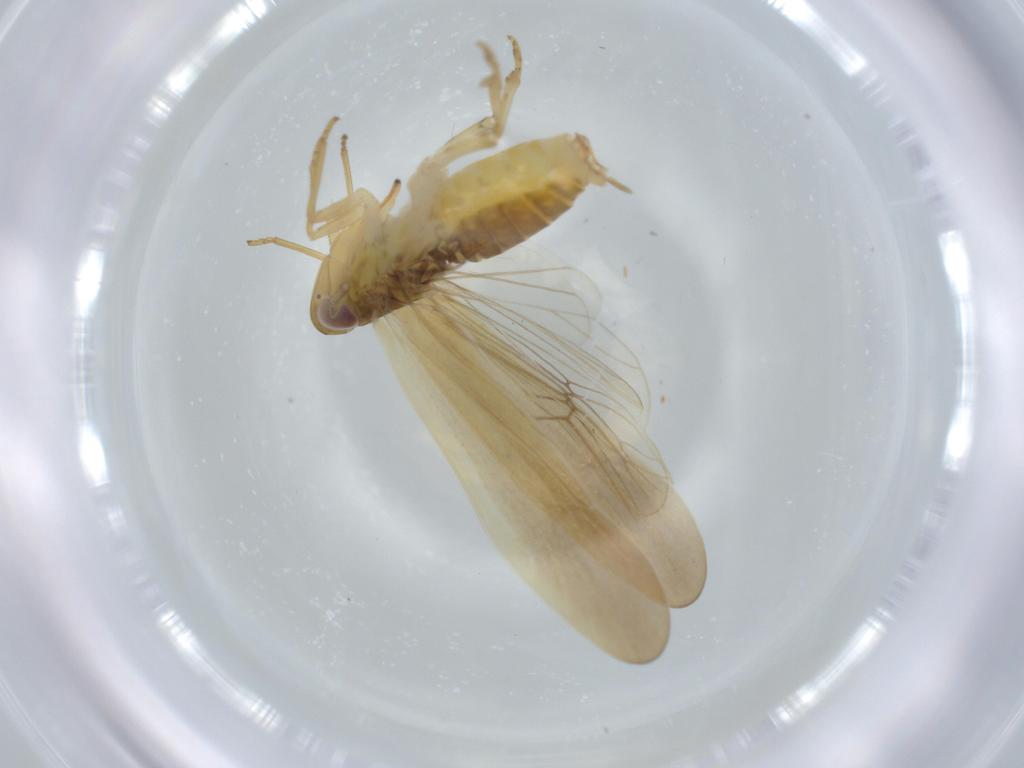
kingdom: Animalia
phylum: Arthropoda
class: Insecta
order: Hemiptera
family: Delphacidae
